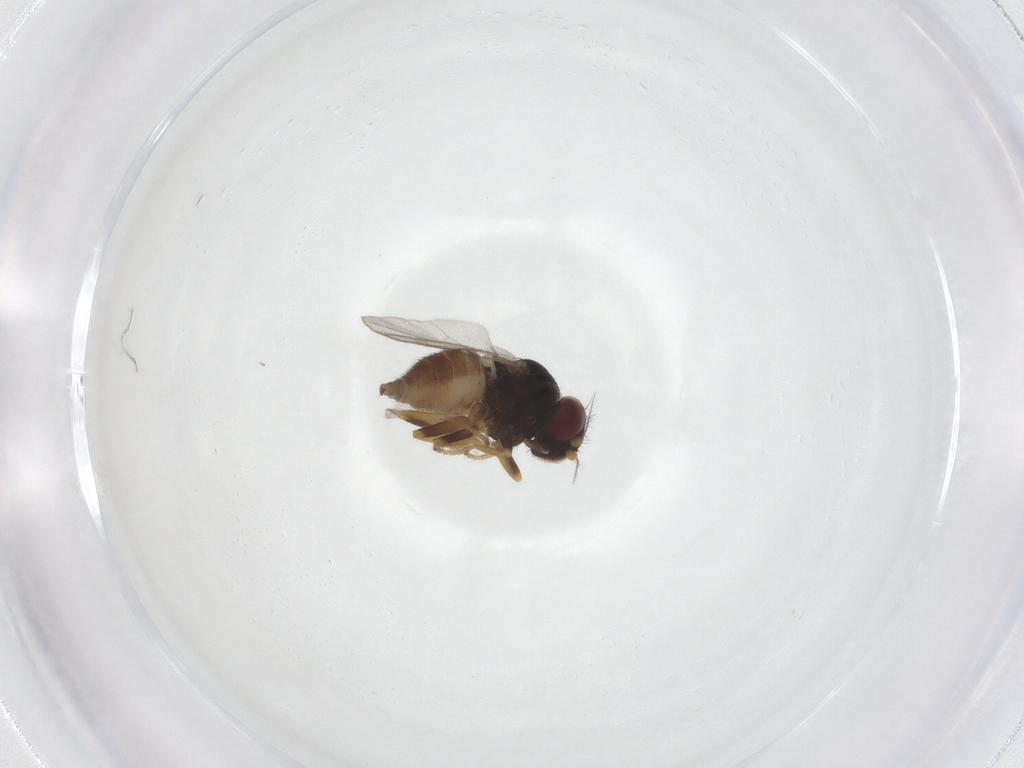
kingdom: Animalia
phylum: Arthropoda
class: Insecta
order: Diptera
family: Chloropidae
